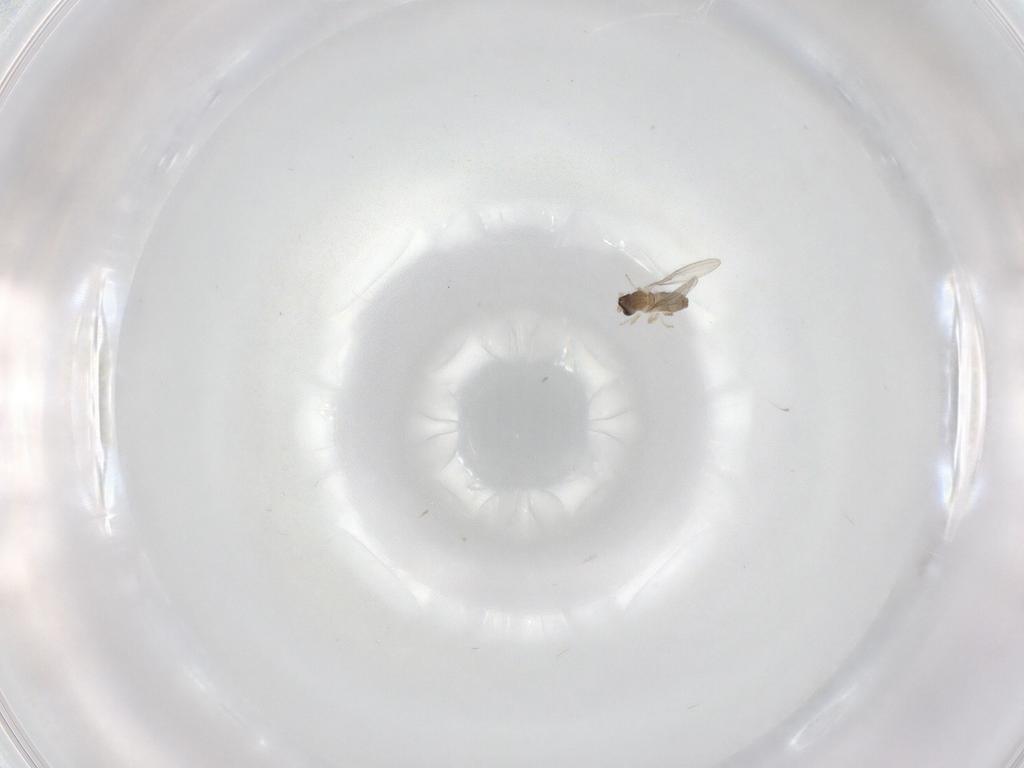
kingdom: Animalia
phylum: Arthropoda
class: Insecta
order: Diptera
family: Cecidomyiidae
